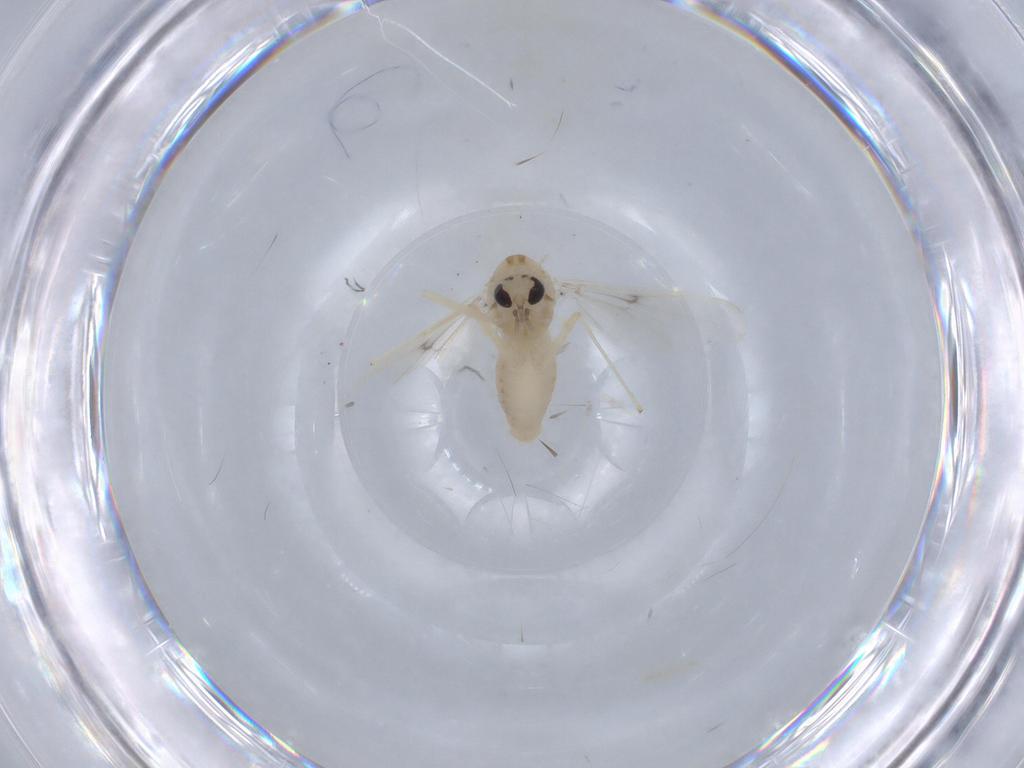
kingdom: Animalia
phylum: Arthropoda
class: Insecta
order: Diptera
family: Chironomidae
